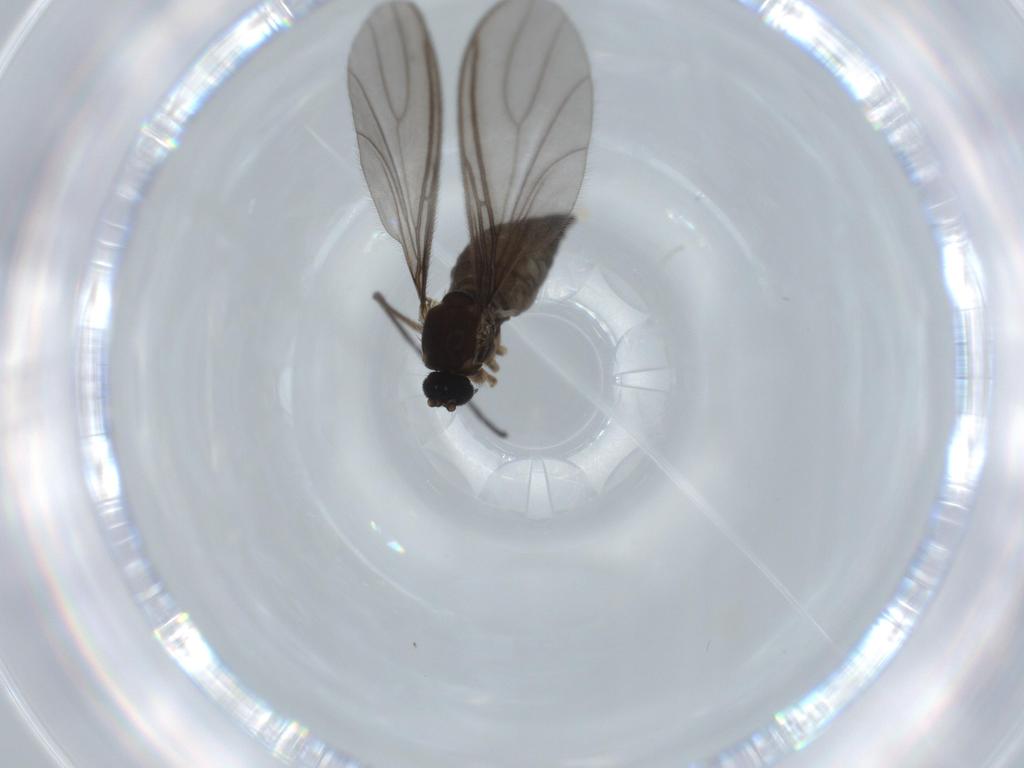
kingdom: Animalia
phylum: Arthropoda
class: Insecta
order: Diptera
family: Sciaridae
